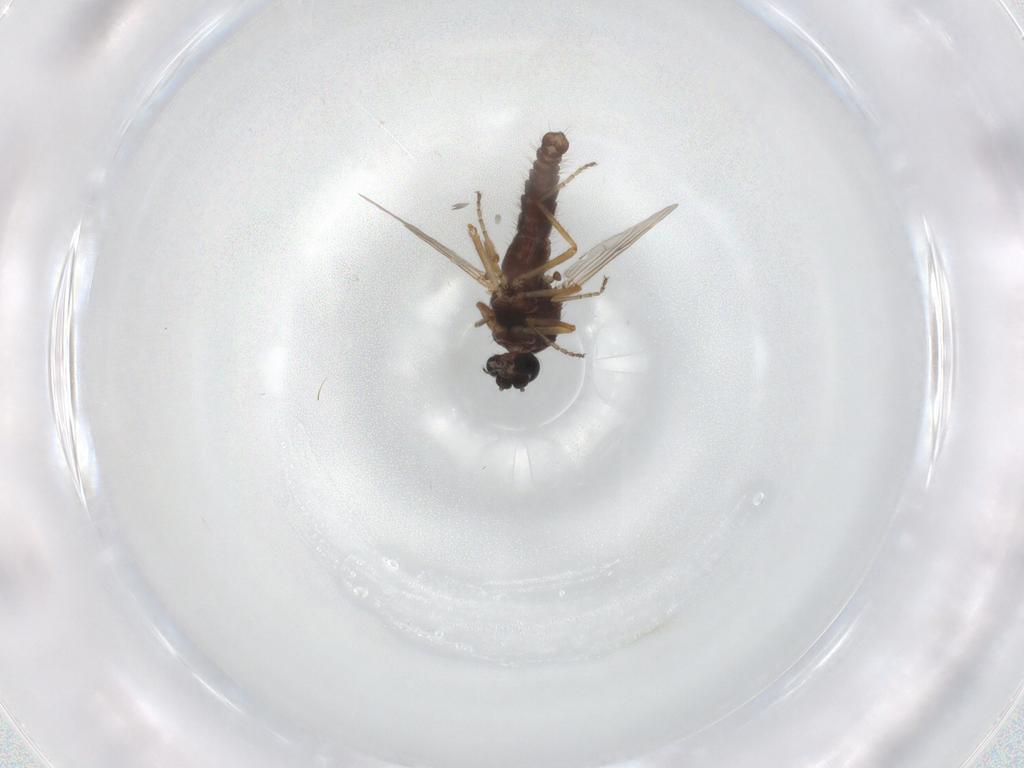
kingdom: Animalia
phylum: Arthropoda
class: Insecta
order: Diptera
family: Ceratopogonidae
